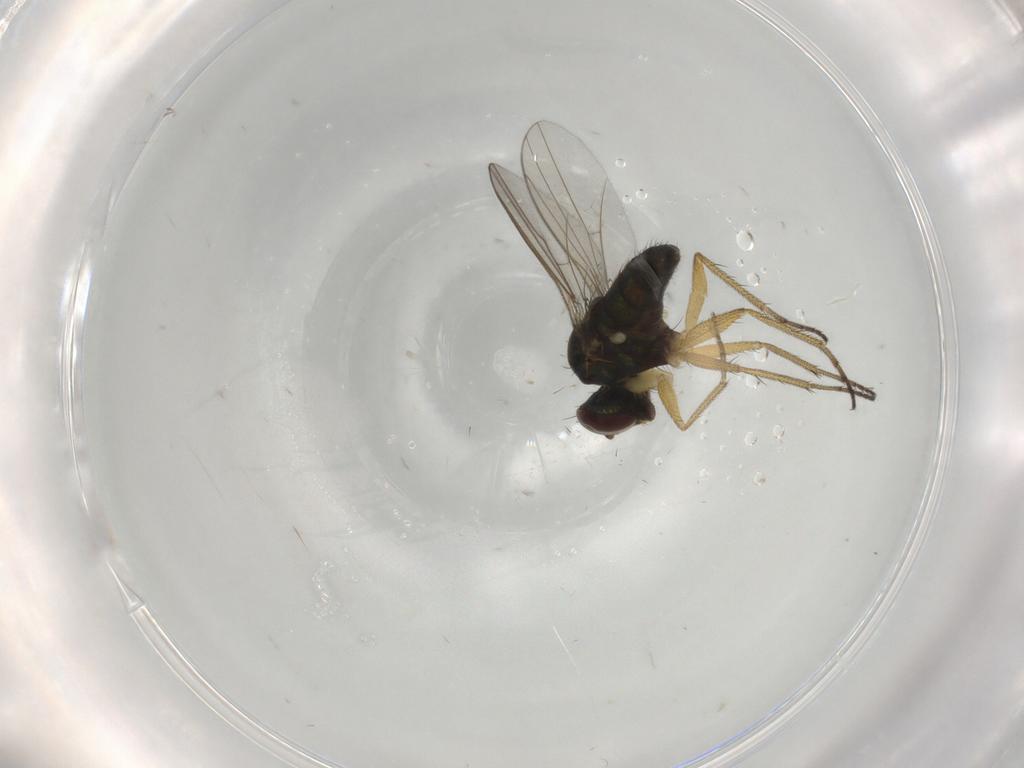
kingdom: Animalia
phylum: Arthropoda
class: Insecta
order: Diptera
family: Dolichopodidae
